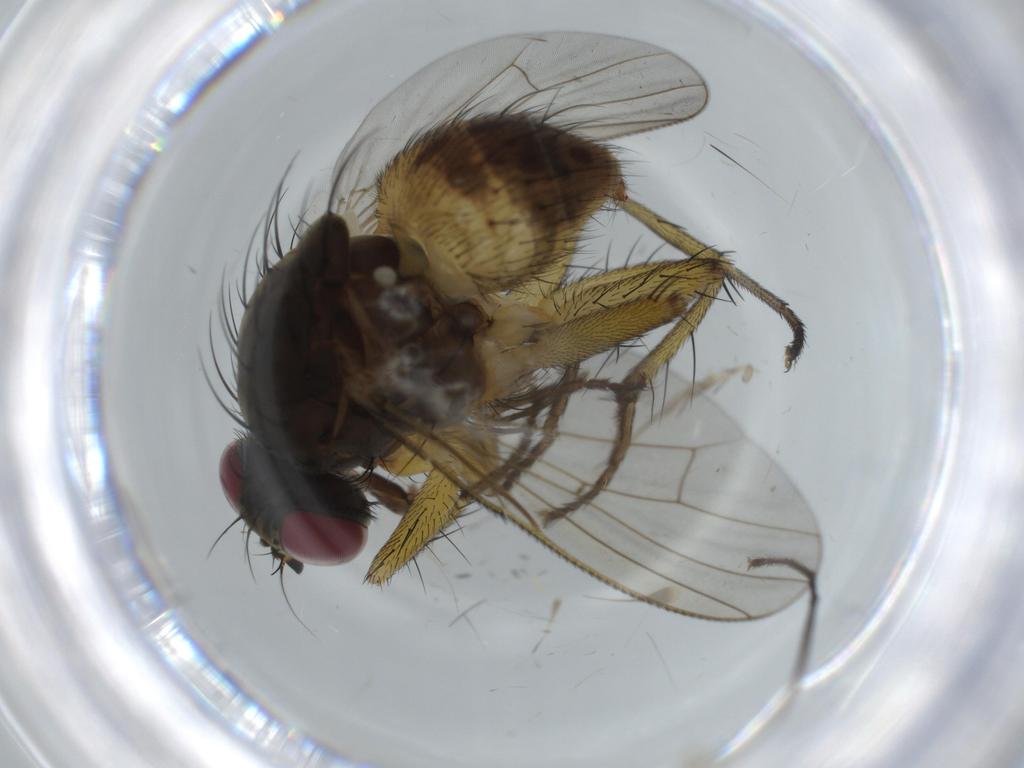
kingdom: Animalia
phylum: Arthropoda
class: Insecta
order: Diptera
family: Muscidae
